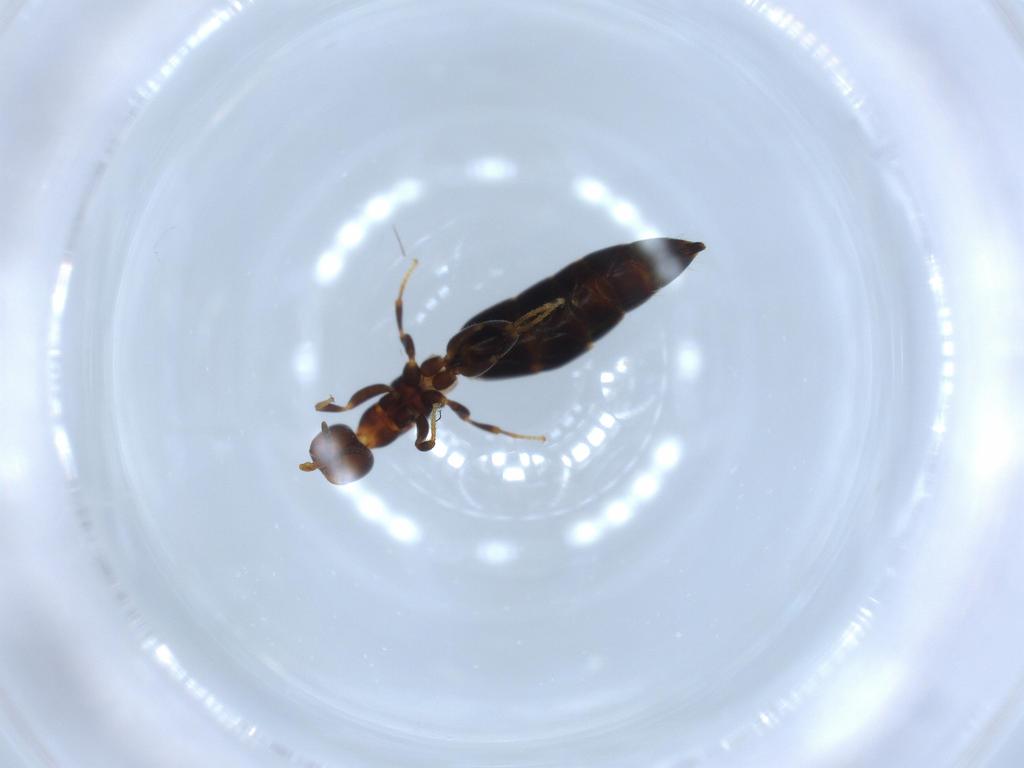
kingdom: Animalia
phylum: Arthropoda
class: Insecta
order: Hymenoptera
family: Bethylidae
